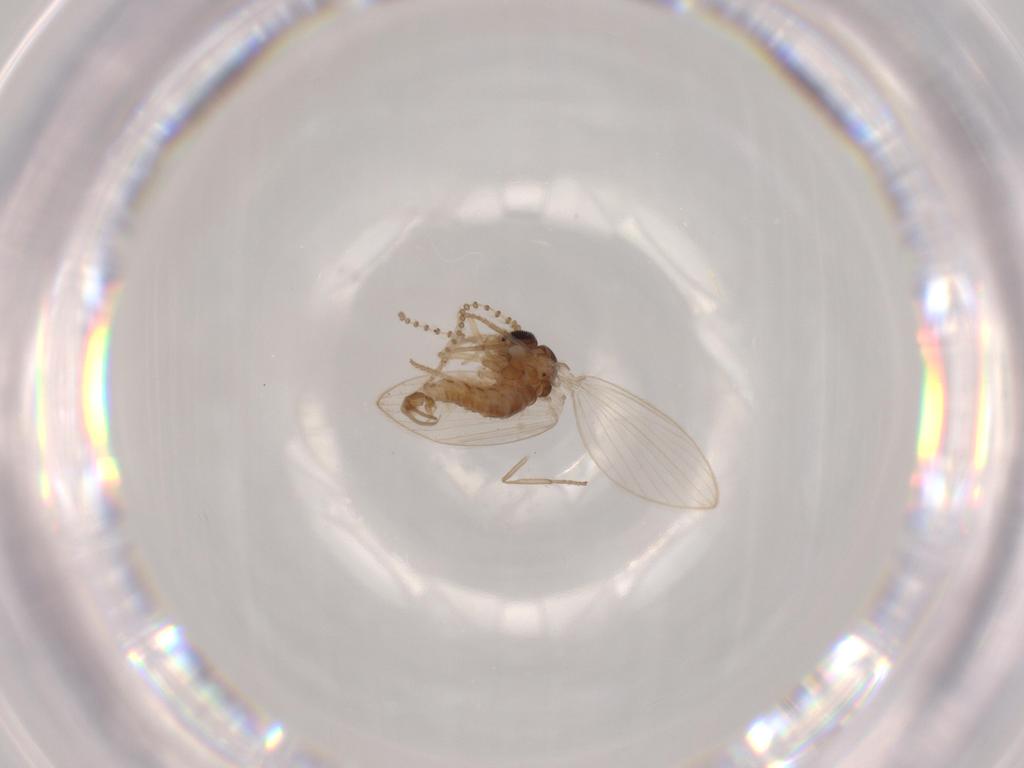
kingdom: Animalia
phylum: Arthropoda
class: Insecta
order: Diptera
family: Psychodidae
